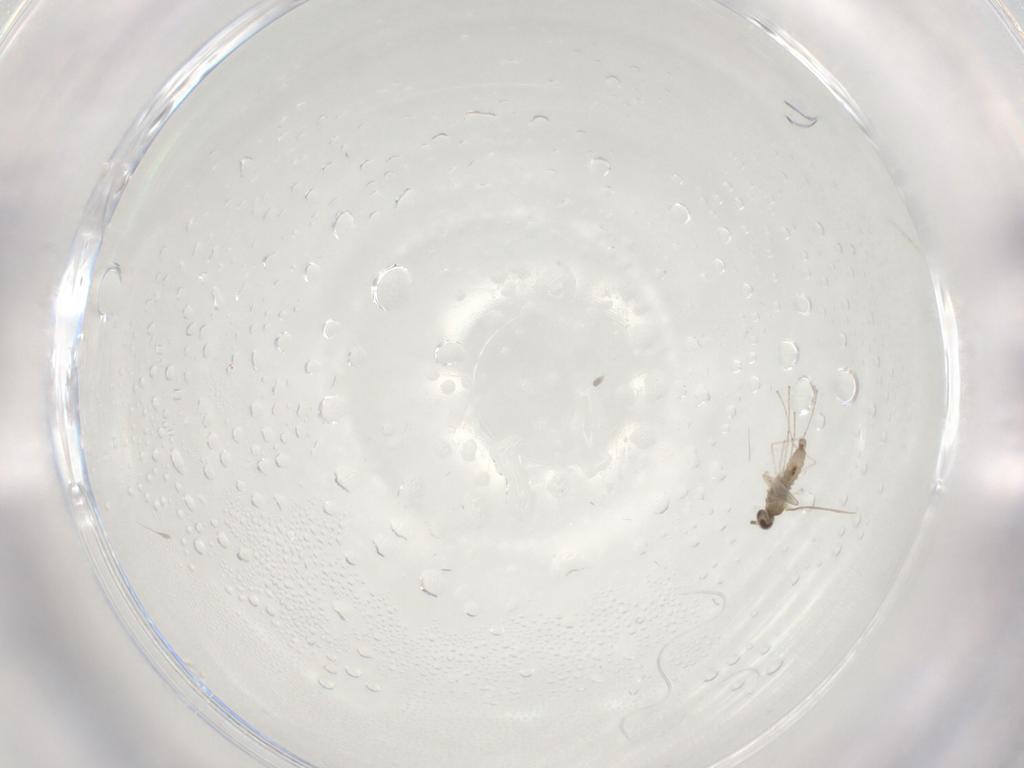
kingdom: Animalia
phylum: Arthropoda
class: Insecta
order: Diptera
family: Cecidomyiidae
